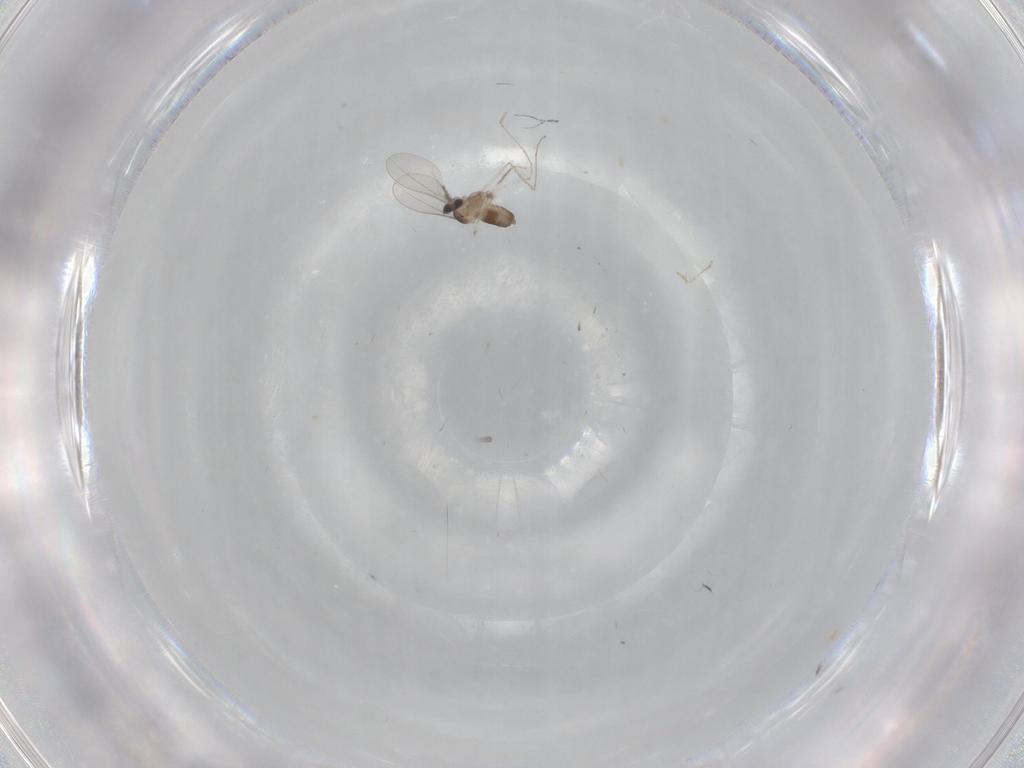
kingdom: Animalia
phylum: Arthropoda
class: Insecta
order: Diptera
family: Cecidomyiidae
